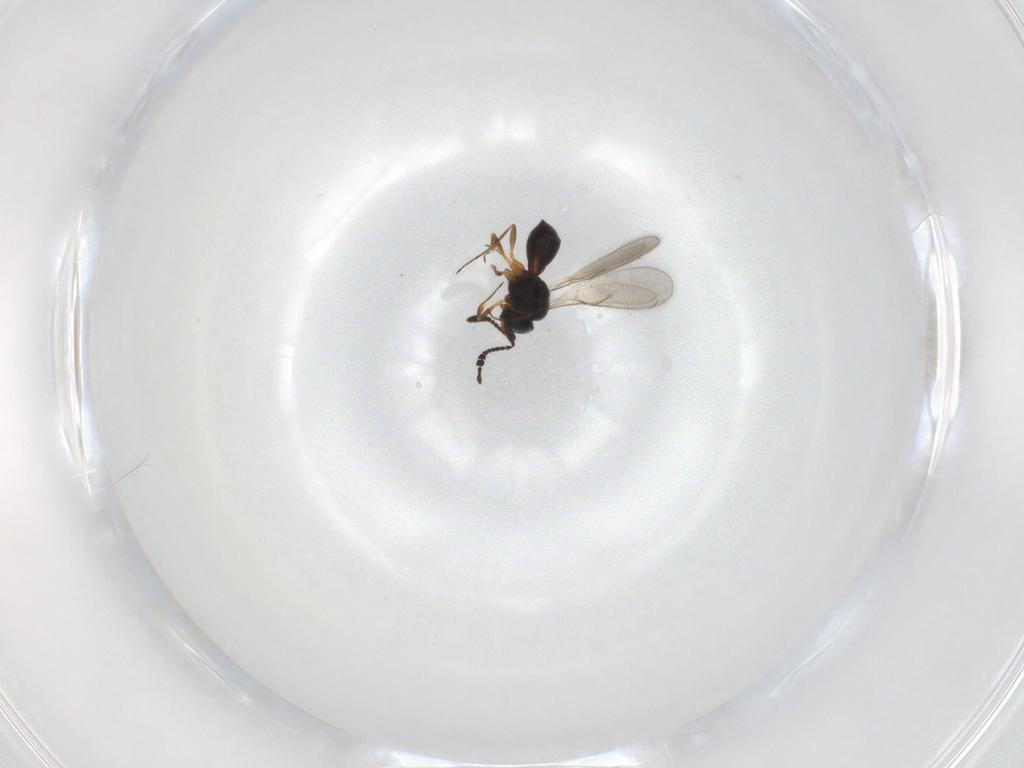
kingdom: Animalia
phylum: Arthropoda
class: Insecta
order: Hymenoptera
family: Scelionidae
